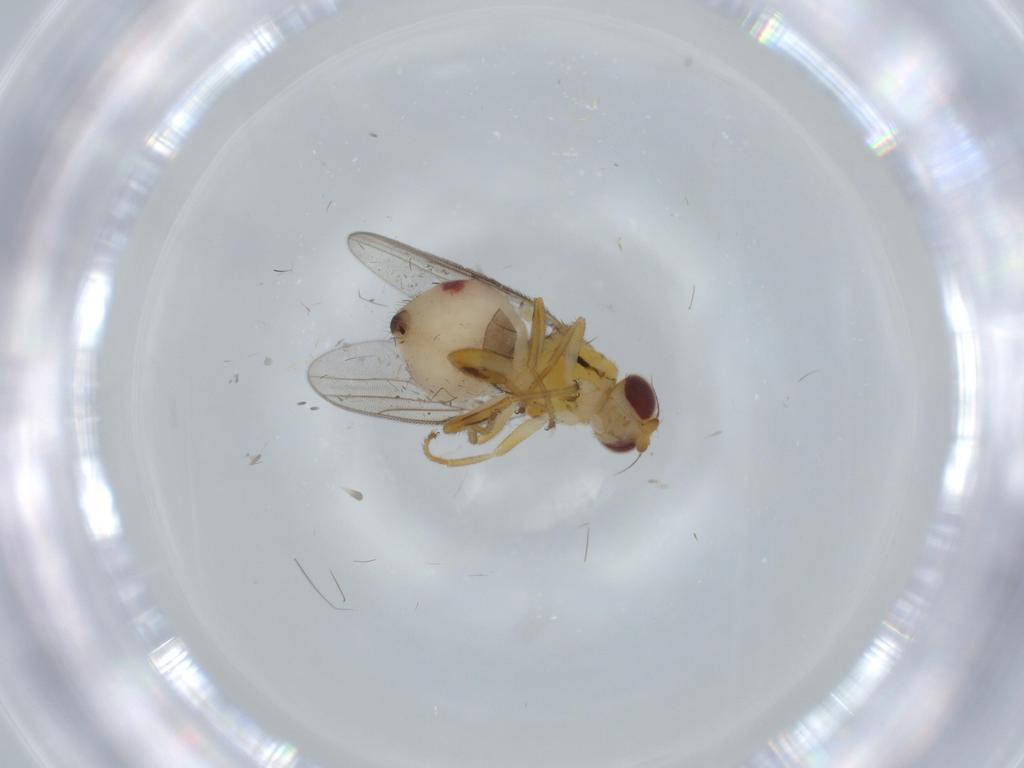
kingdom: Animalia
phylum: Arthropoda
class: Insecta
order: Diptera
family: Chloropidae
